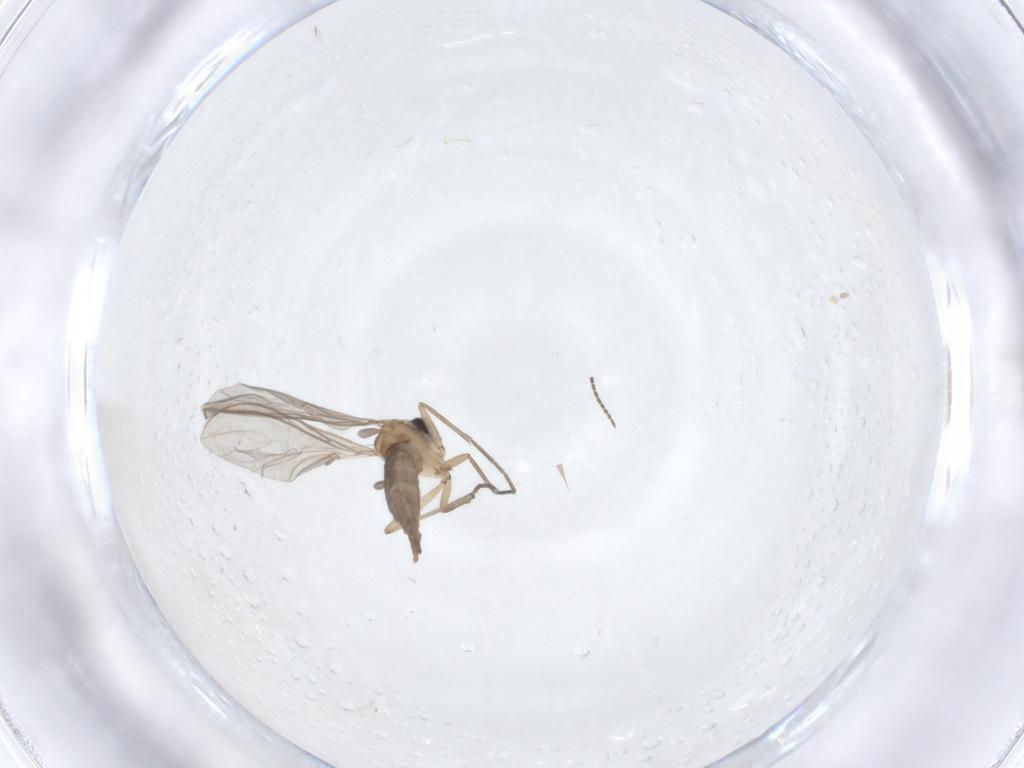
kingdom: Animalia
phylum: Arthropoda
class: Insecta
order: Diptera
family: Sciaridae
